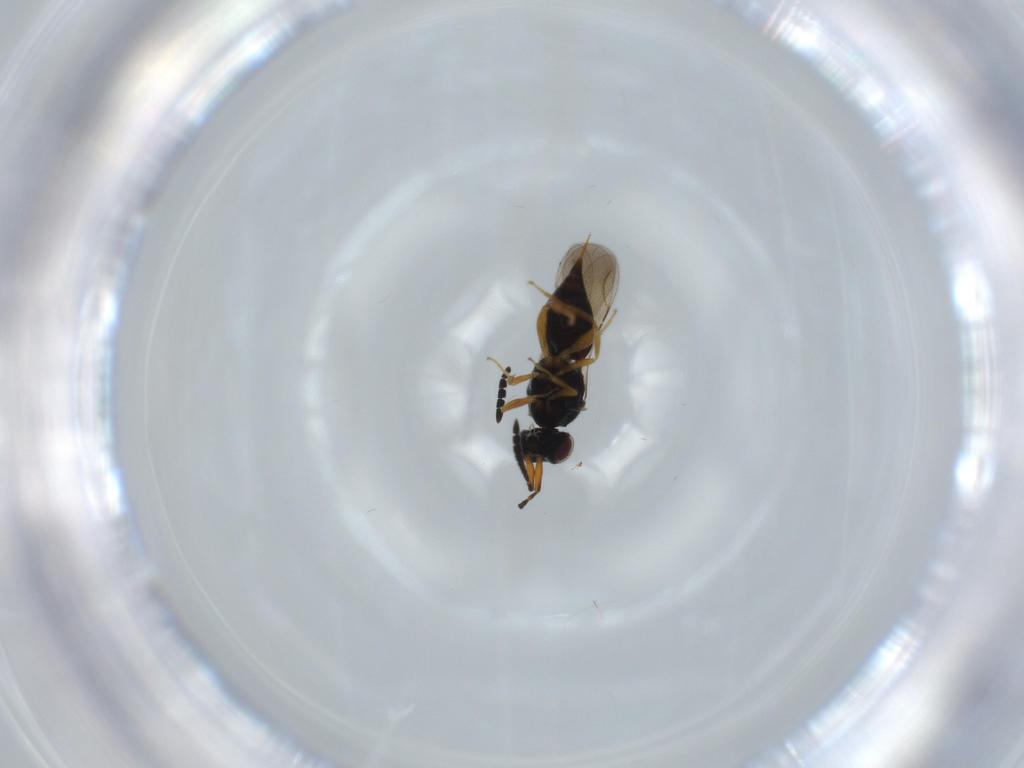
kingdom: Animalia
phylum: Arthropoda
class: Insecta
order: Hymenoptera
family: Ceraphronidae
